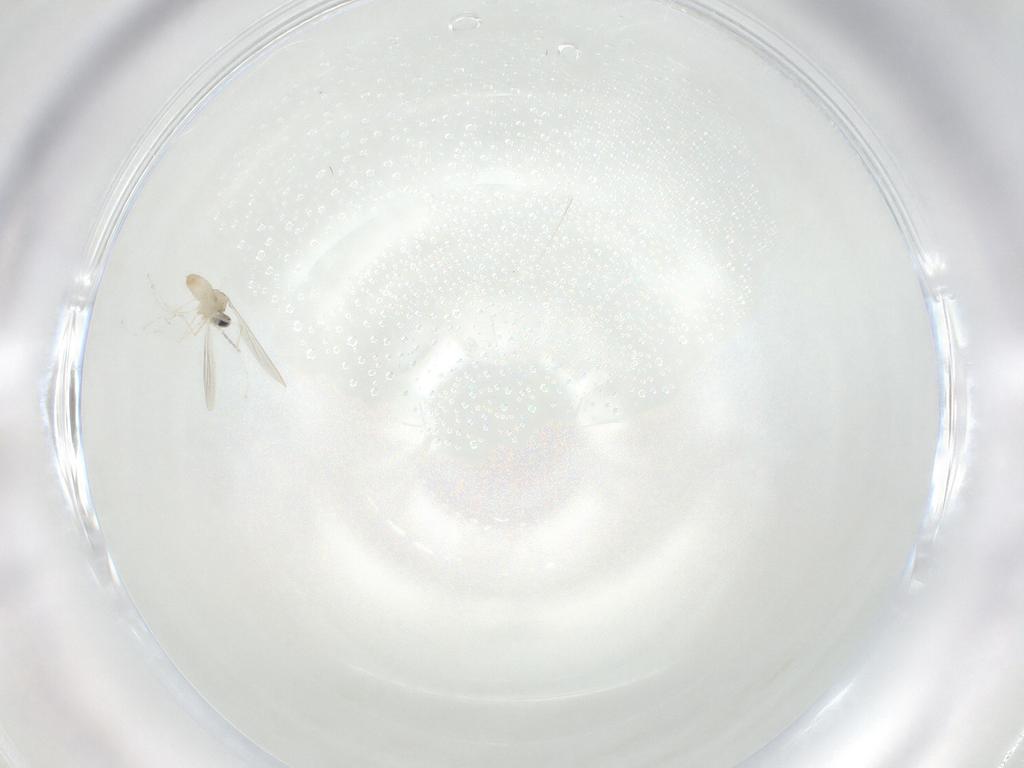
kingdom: Animalia
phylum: Arthropoda
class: Insecta
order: Diptera
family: Cecidomyiidae
